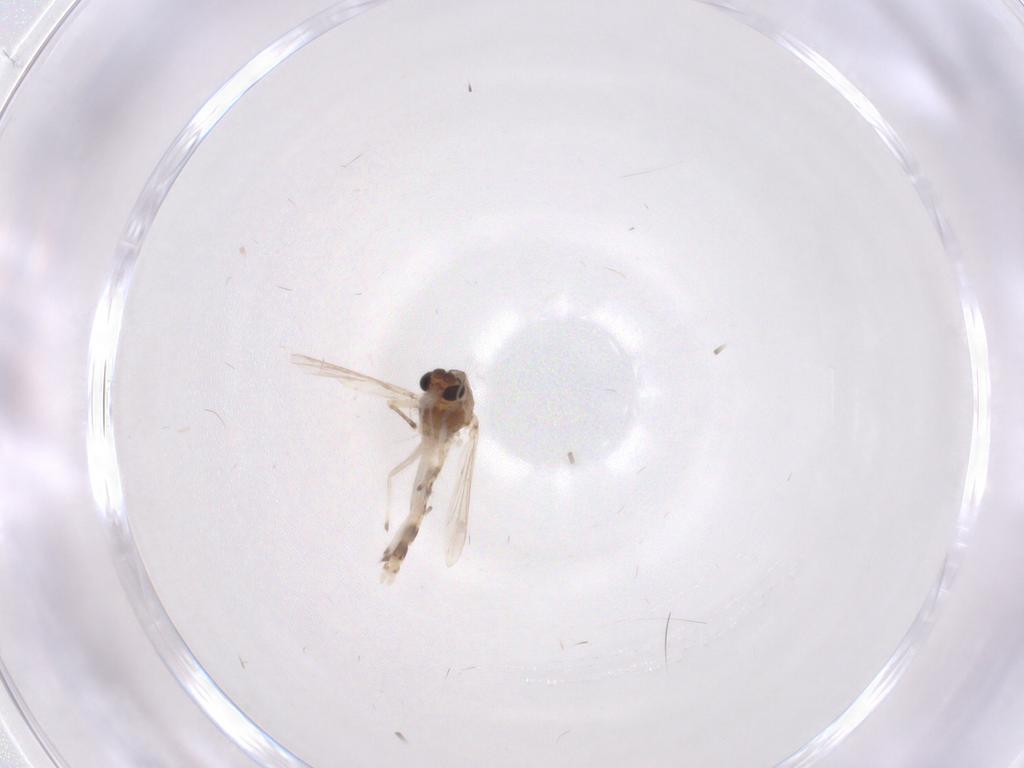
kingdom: Animalia
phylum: Arthropoda
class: Insecta
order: Diptera
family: Chironomidae
